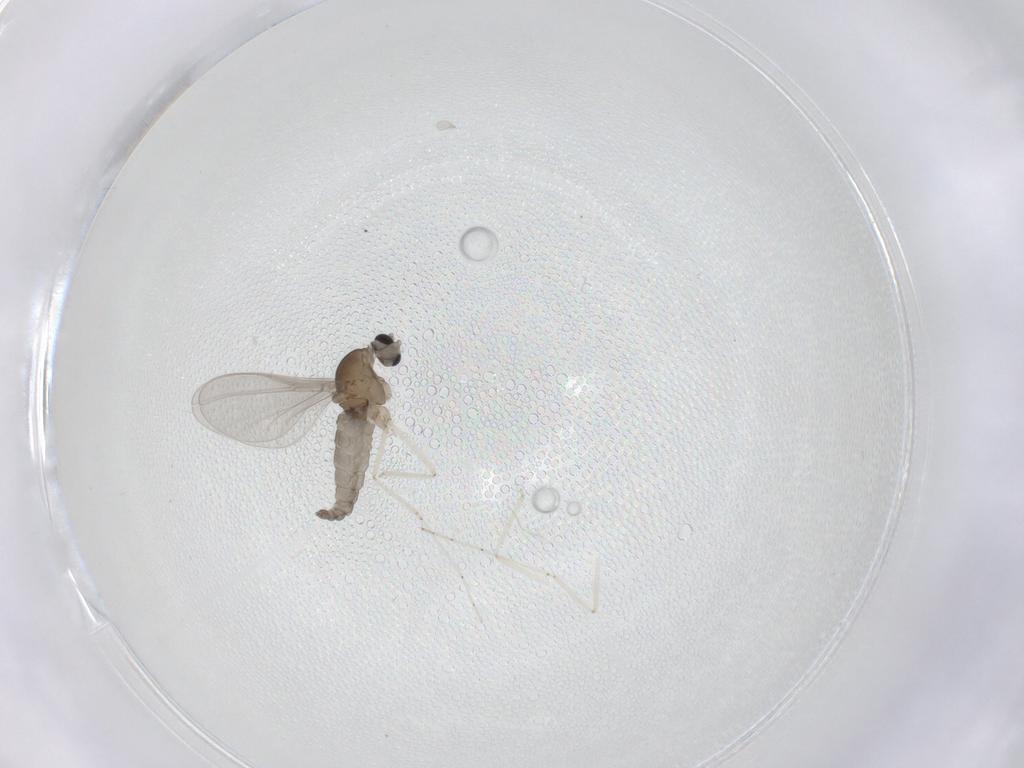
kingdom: Animalia
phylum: Arthropoda
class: Insecta
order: Diptera
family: Cecidomyiidae
